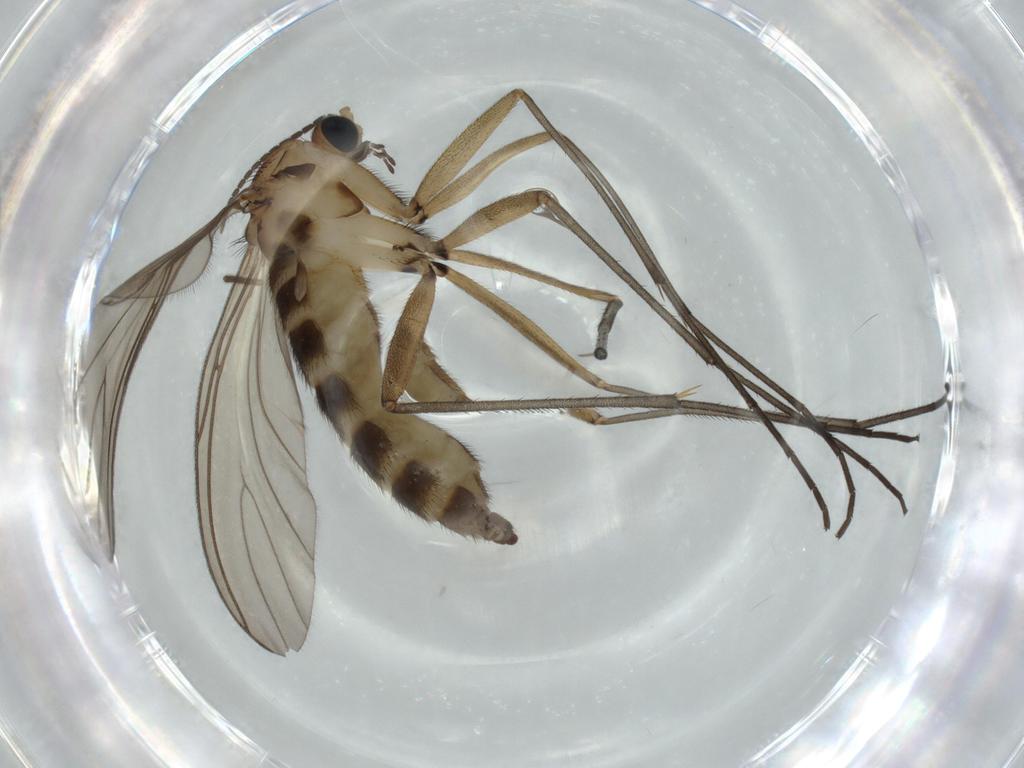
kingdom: Animalia
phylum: Arthropoda
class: Insecta
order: Diptera
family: Sciaridae
